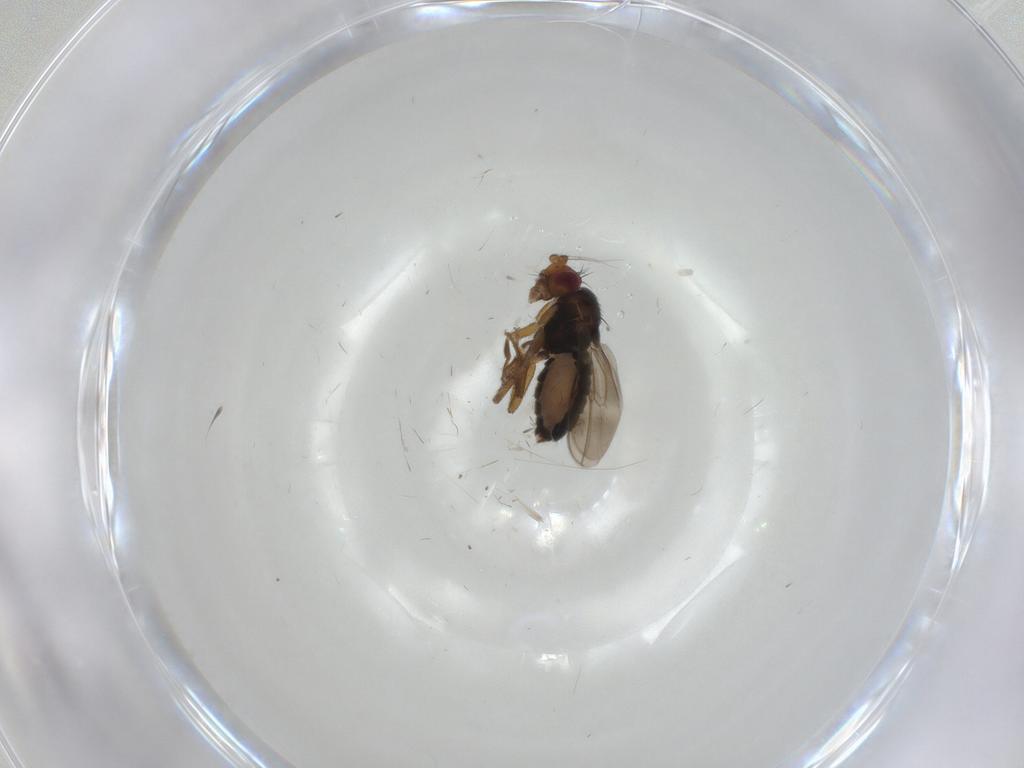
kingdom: Animalia
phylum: Arthropoda
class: Insecta
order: Diptera
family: Sphaeroceridae
